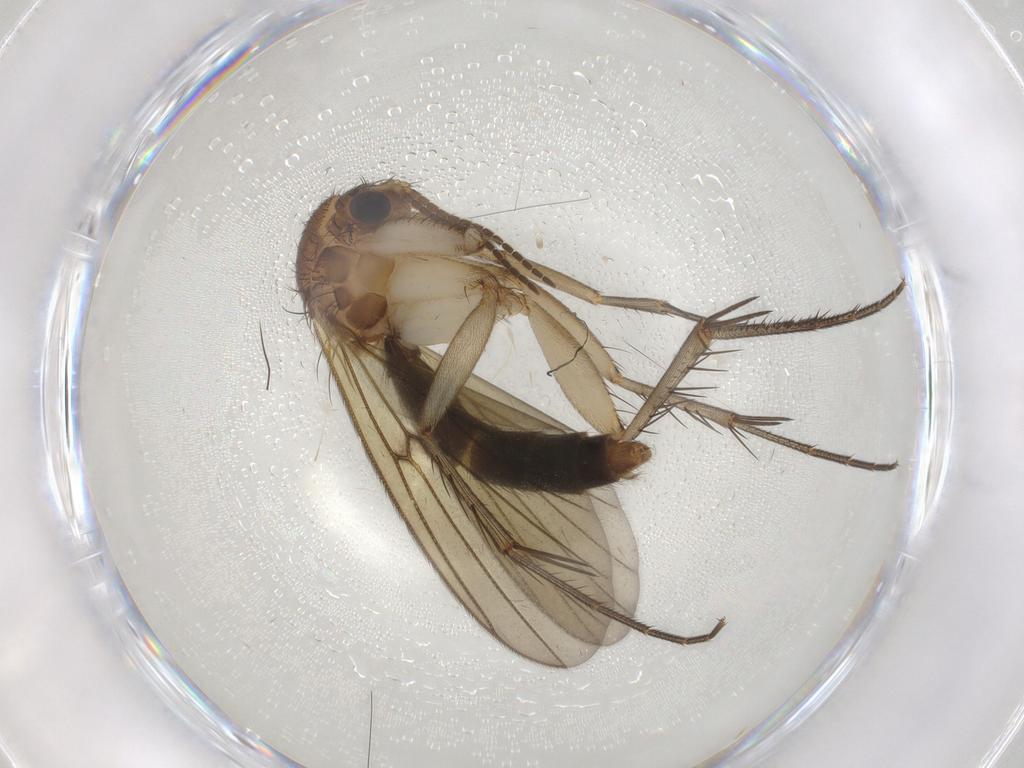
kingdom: Animalia
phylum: Arthropoda
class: Insecta
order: Diptera
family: Mycetophilidae
